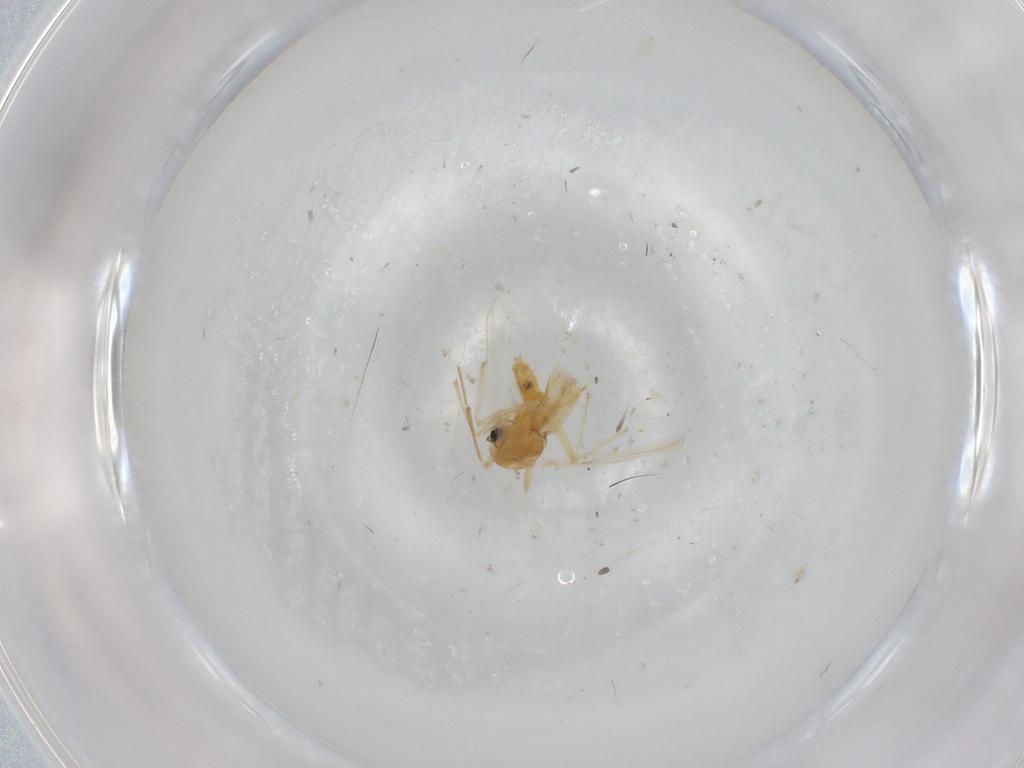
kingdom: Animalia
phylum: Arthropoda
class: Insecta
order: Diptera
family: Chironomidae
